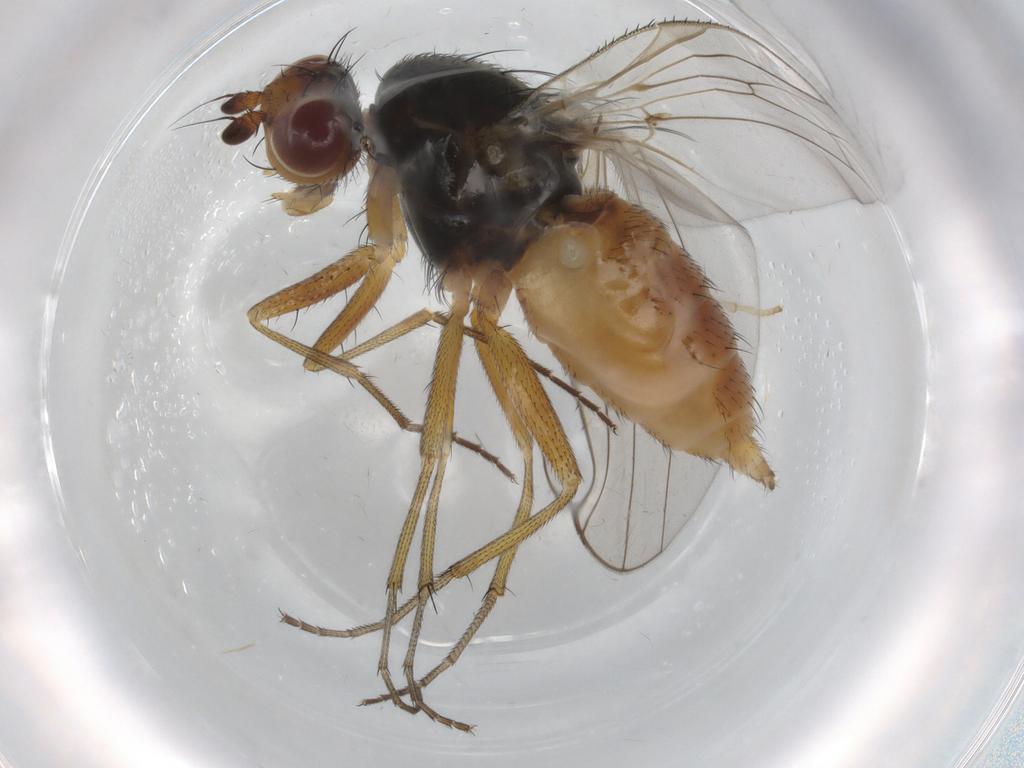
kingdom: Animalia
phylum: Arthropoda
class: Insecta
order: Diptera
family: Heleomyzidae
